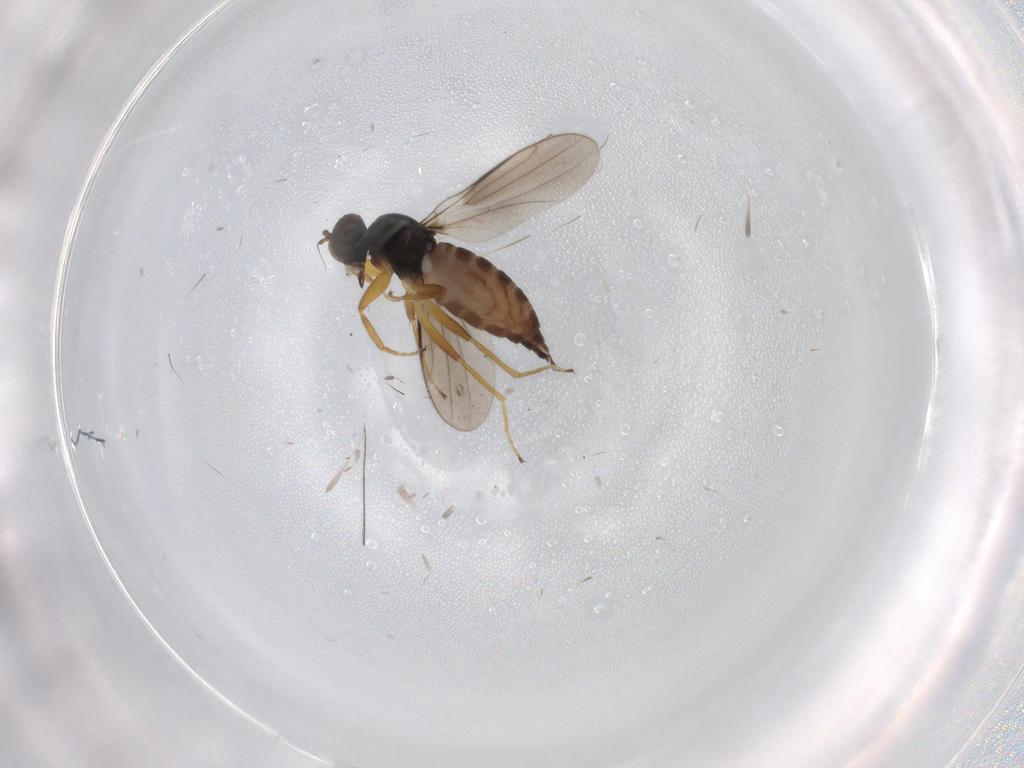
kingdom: Animalia
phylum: Arthropoda
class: Insecta
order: Diptera
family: Hybotidae
